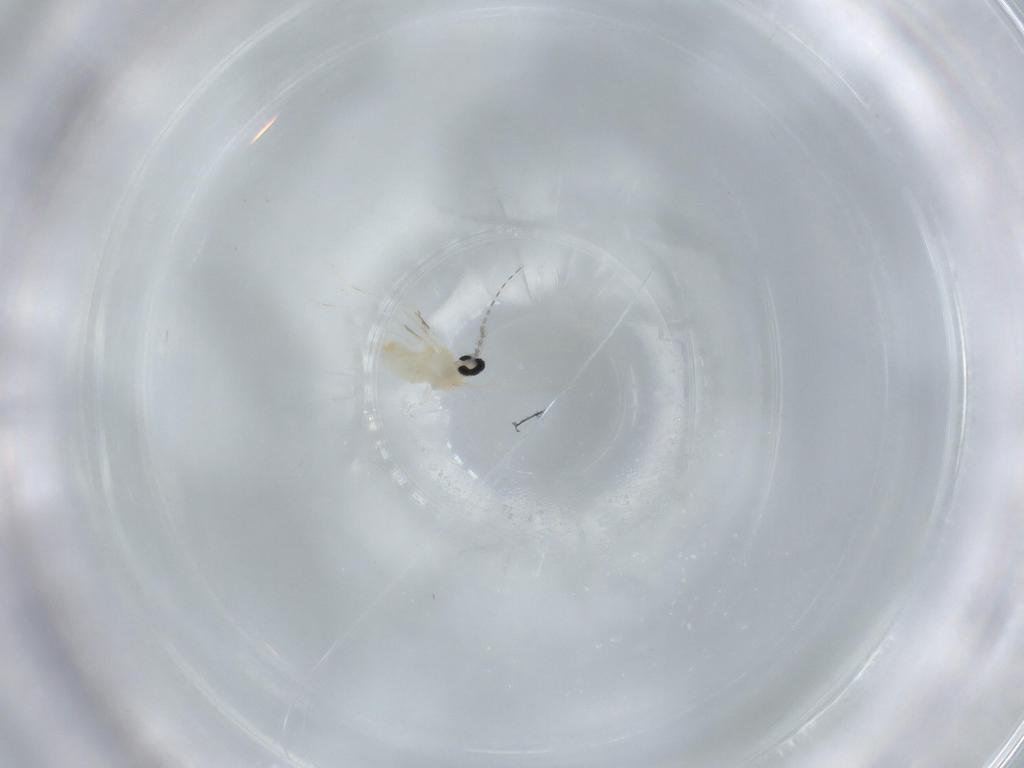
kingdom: Animalia
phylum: Arthropoda
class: Insecta
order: Diptera
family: Cecidomyiidae
